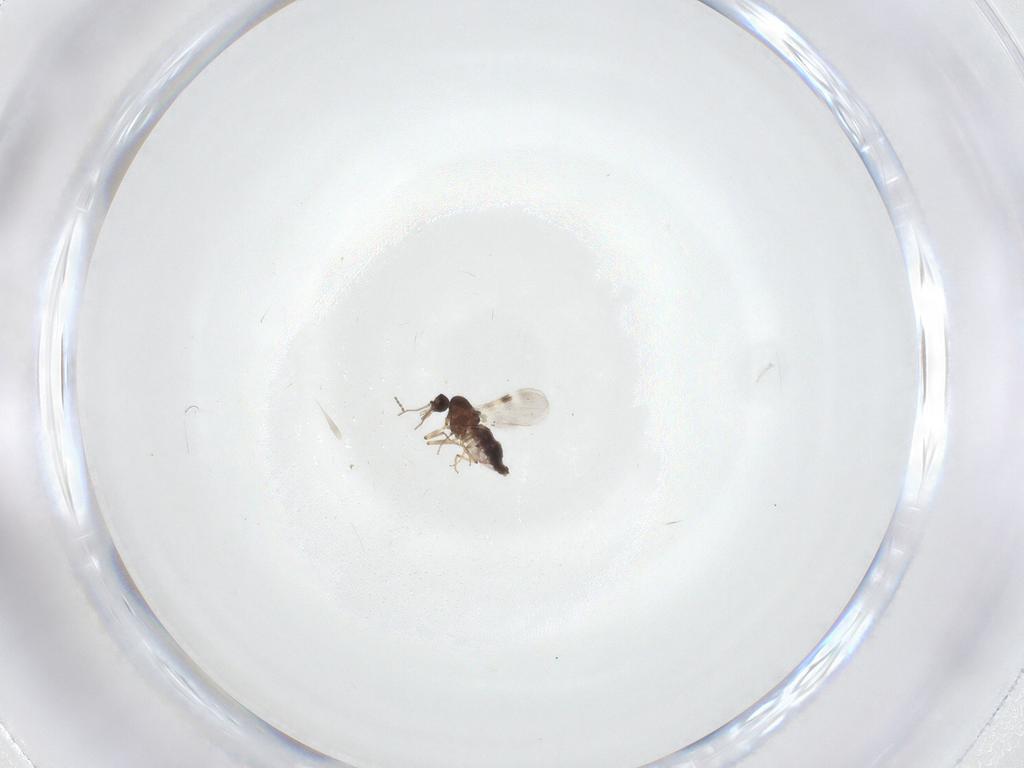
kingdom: Animalia
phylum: Arthropoda
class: Insecta
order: Diptera
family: Cecidomyiidae
